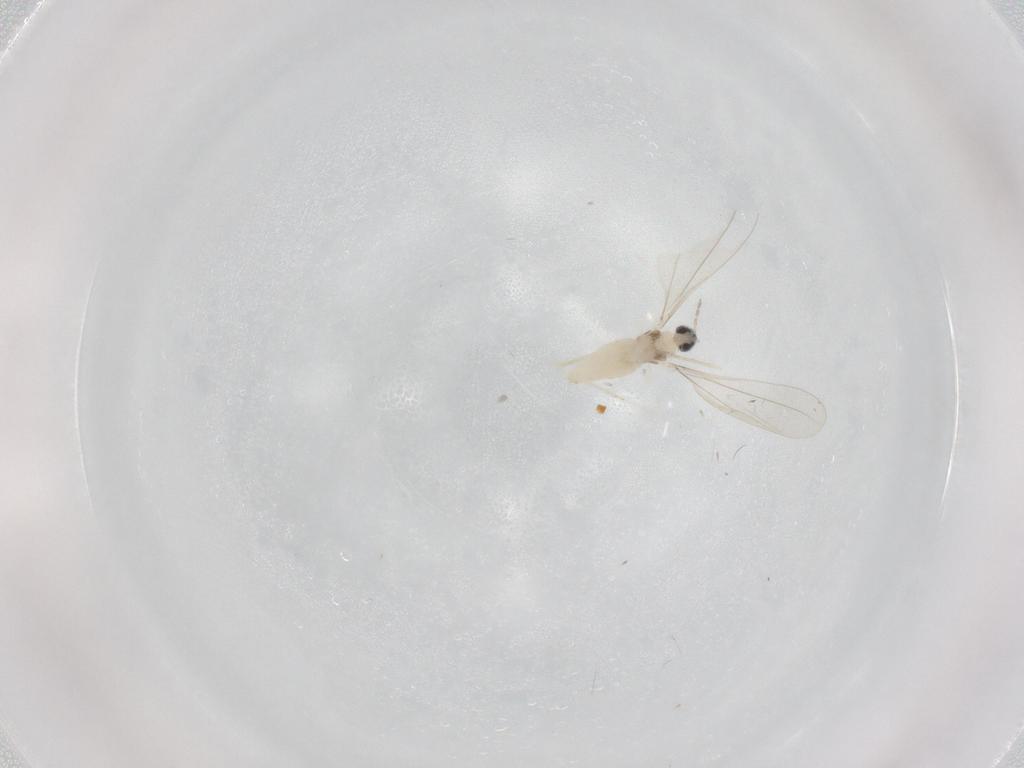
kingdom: Animalia
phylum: Arthropoda
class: Insecta
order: Diptera
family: Cecidomyiidae
